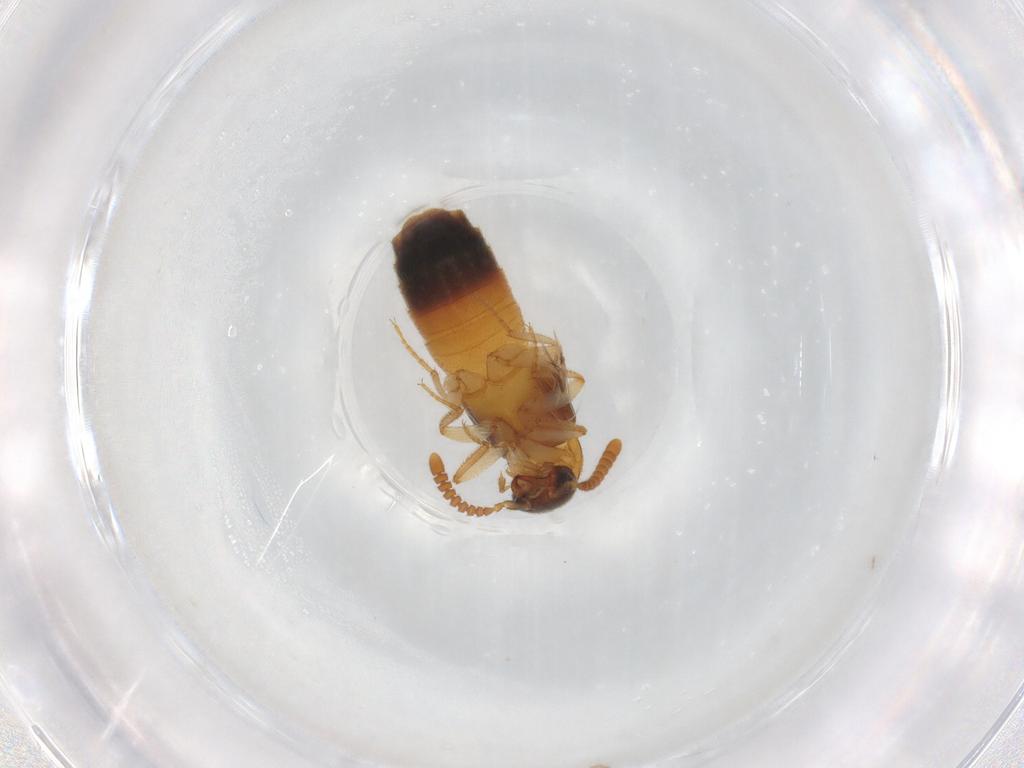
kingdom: Animalia
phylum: Arthropoda
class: Insecta
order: Coleoptera
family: Staphylinidae
